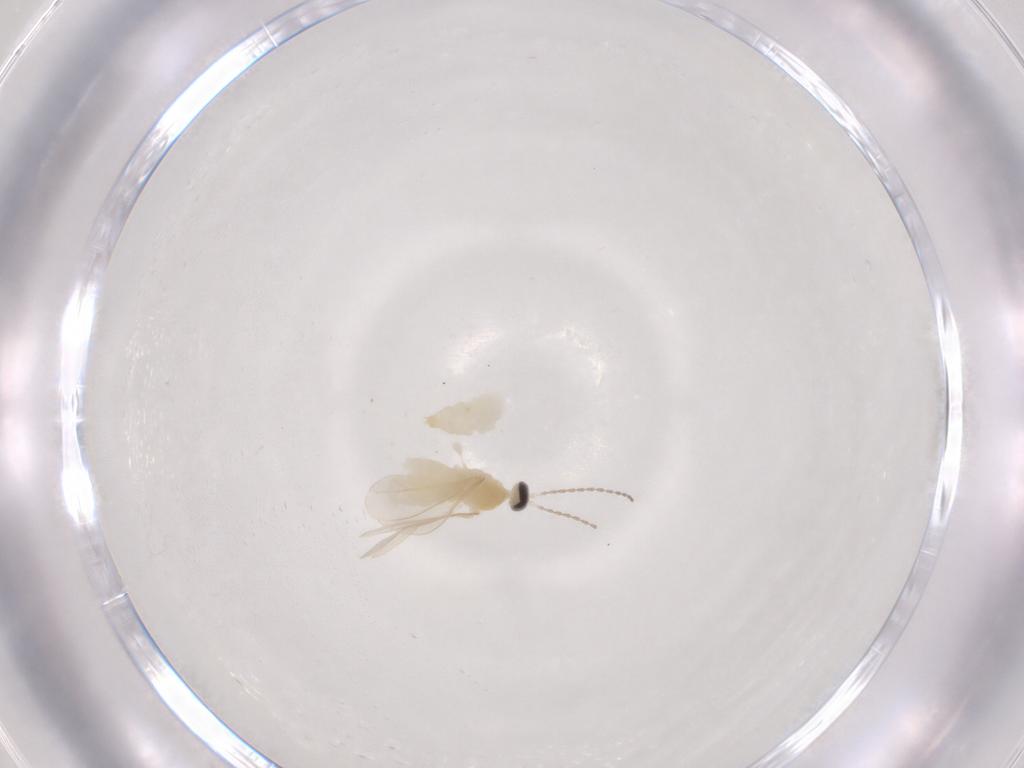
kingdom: Animalia
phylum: Arthropoda
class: Insecta
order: Diptera
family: Cecidomyiidae
